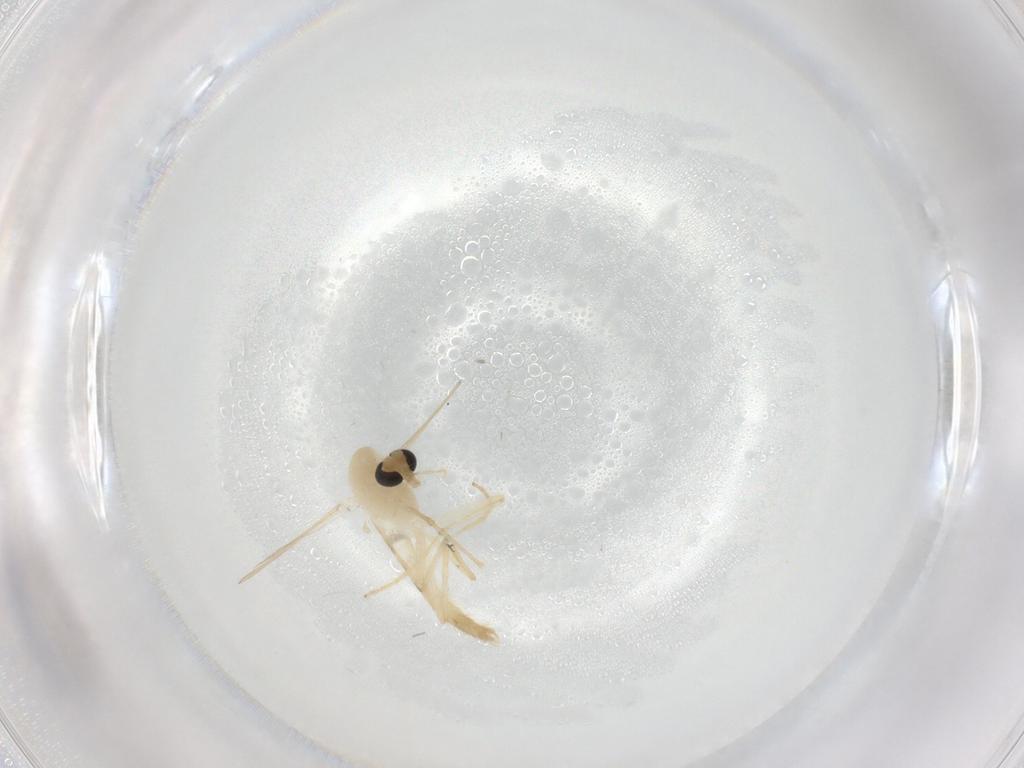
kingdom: Animalia
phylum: Arthropoda
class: Insecta
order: Diptera
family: Chironomidae
